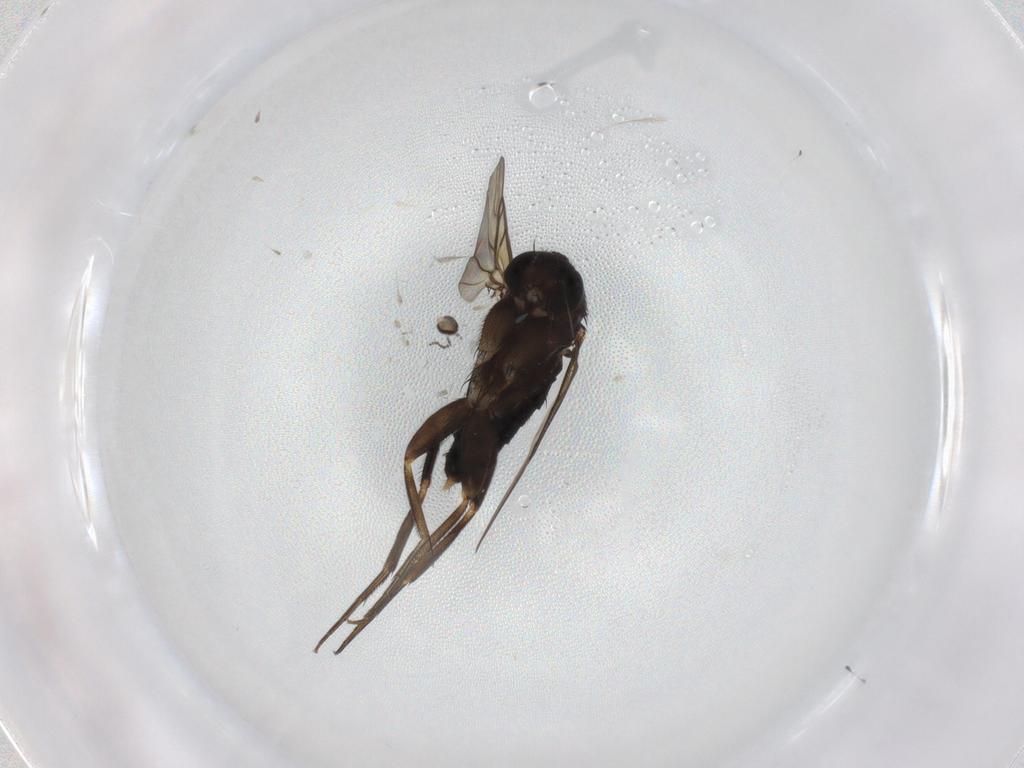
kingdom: Animalia
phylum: Arthropoda
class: Insecta
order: Diptera
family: Phoridae
